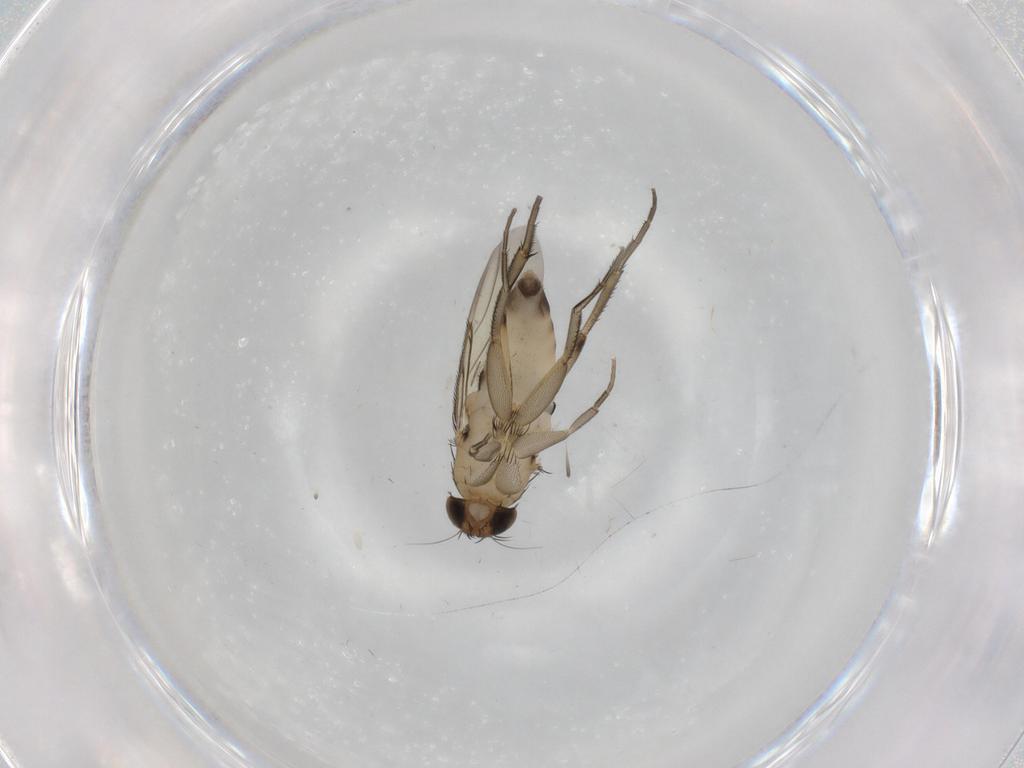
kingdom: Animalia
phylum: Arthropoda
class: Insecta
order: Diptera
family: Phoridae
